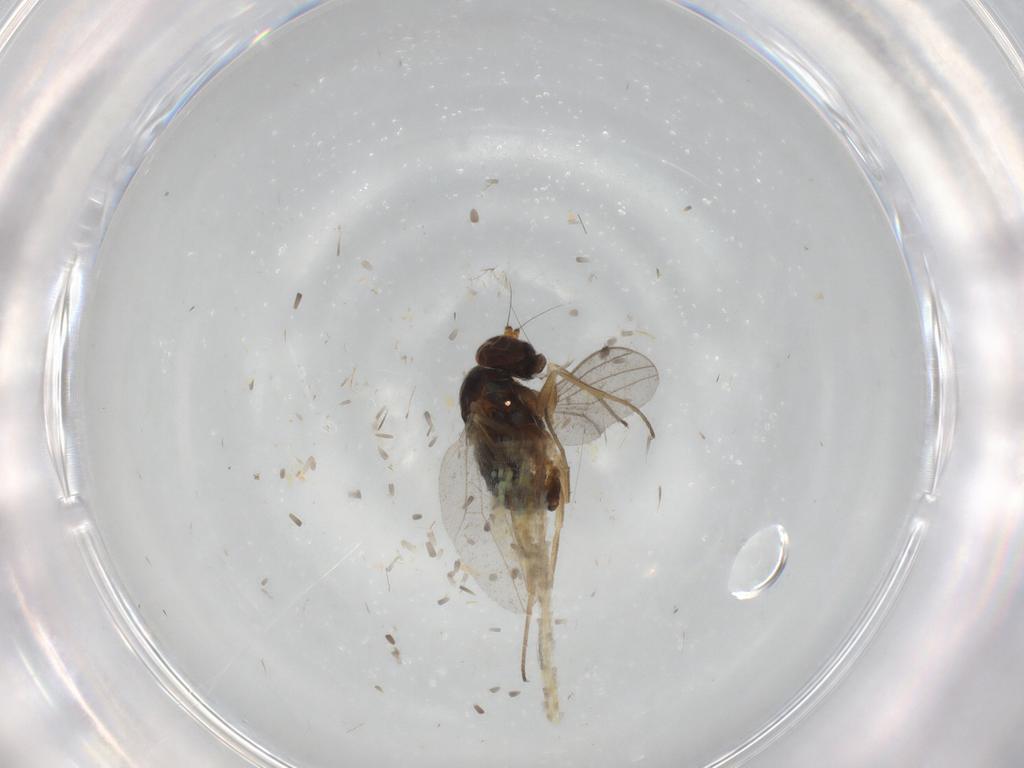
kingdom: Animalia
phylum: Arthropoda
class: Insecta
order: Diptera
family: Dolichopodidae
